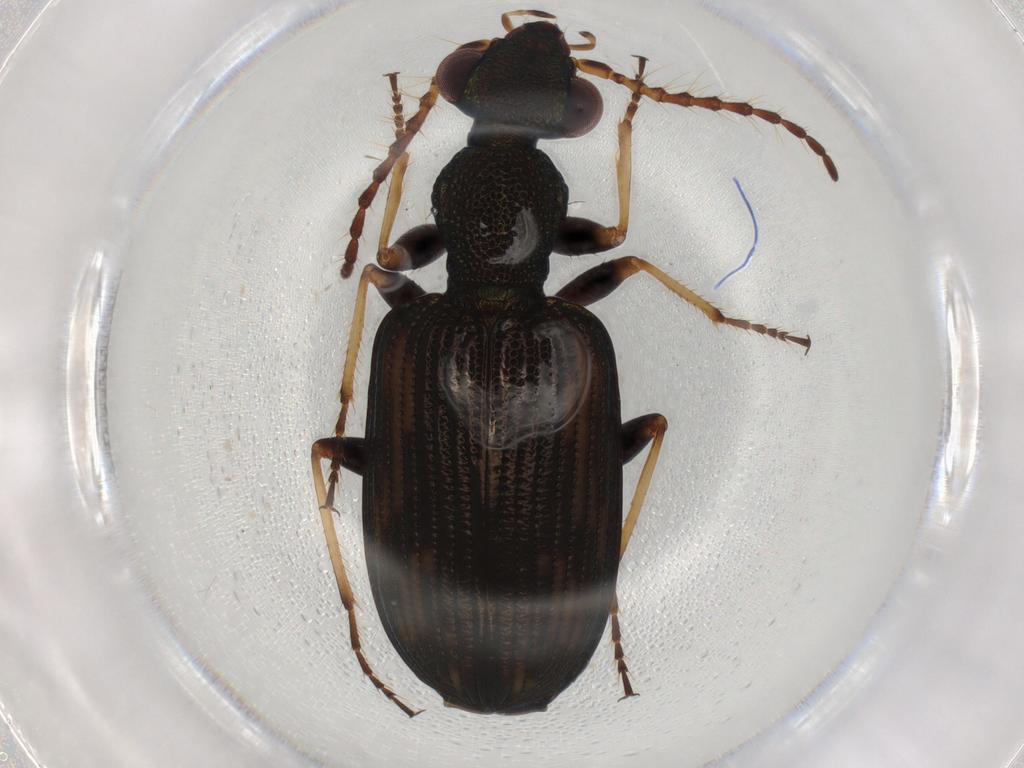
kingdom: Animalia
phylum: Arthropoda
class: Insecta
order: Coleoptera
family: Carabidae
